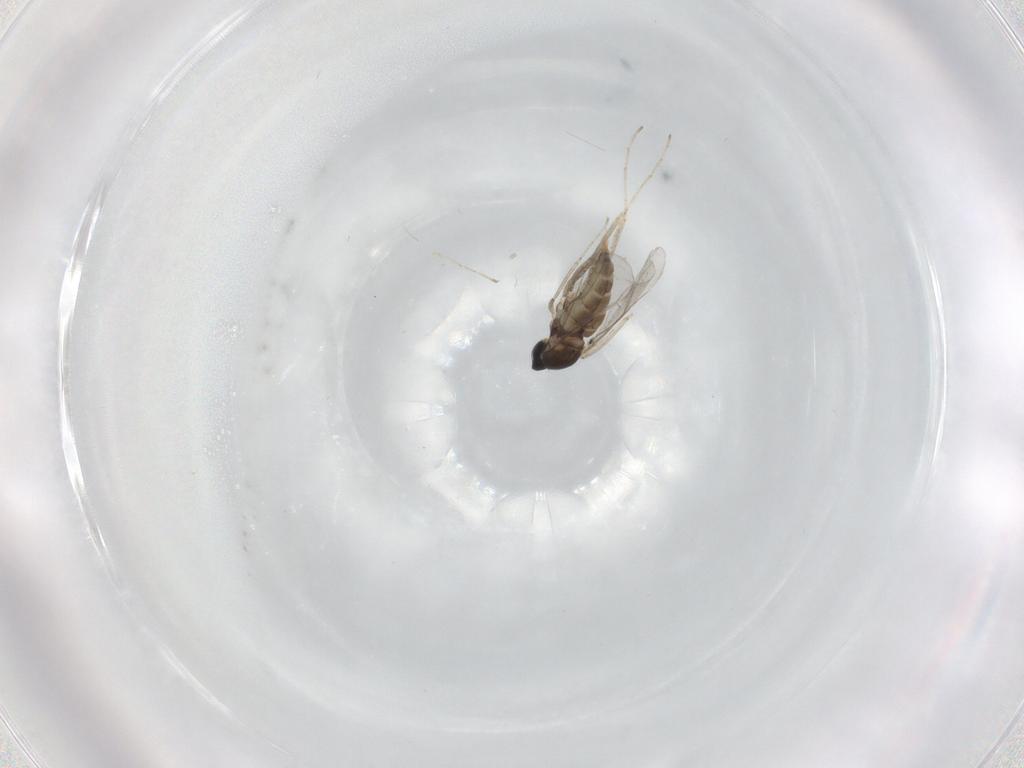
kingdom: Animalia
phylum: Arthropoda
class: Insecta
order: Diptera
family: Cecidomyiidae
